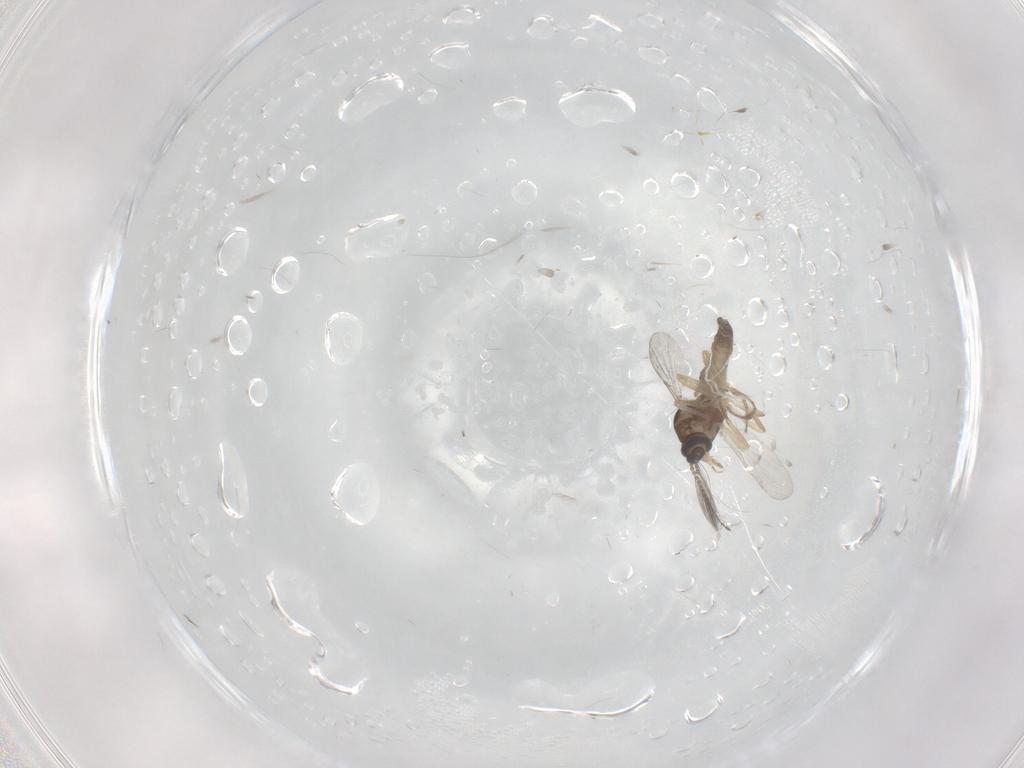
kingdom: Animalia
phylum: Arthropoda
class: Insecta
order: Diptera
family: Ceratopogonidae
